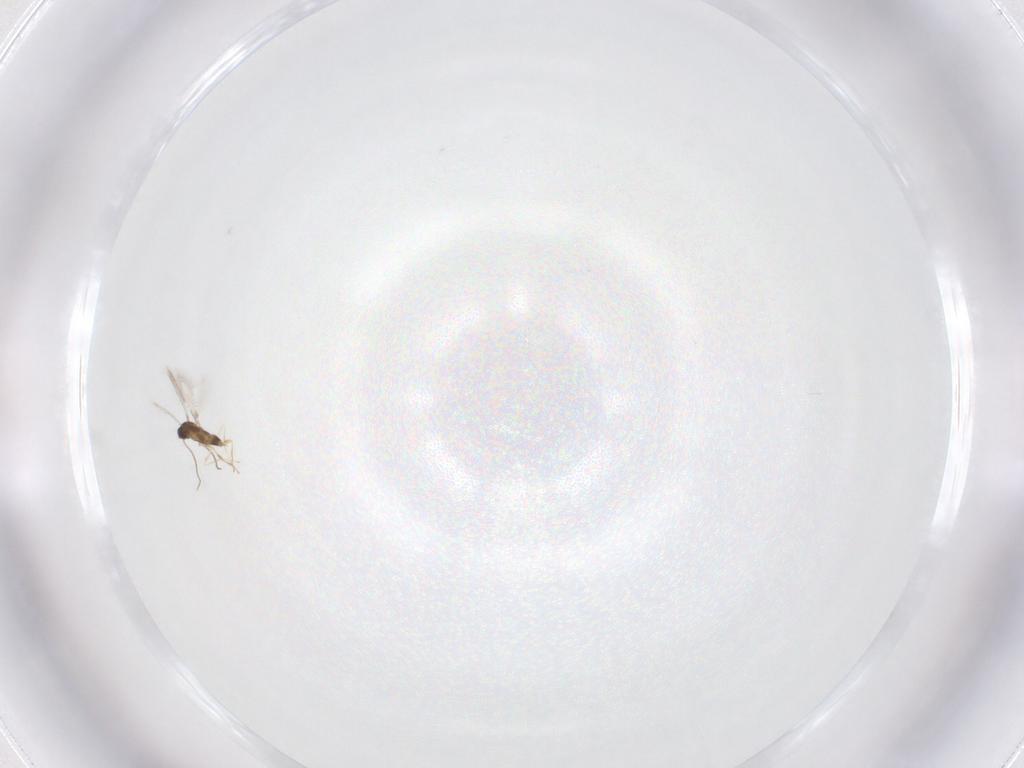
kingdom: Animalia
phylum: Arthropoda
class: Insecta
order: Hymenoptera
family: Mymaridae
